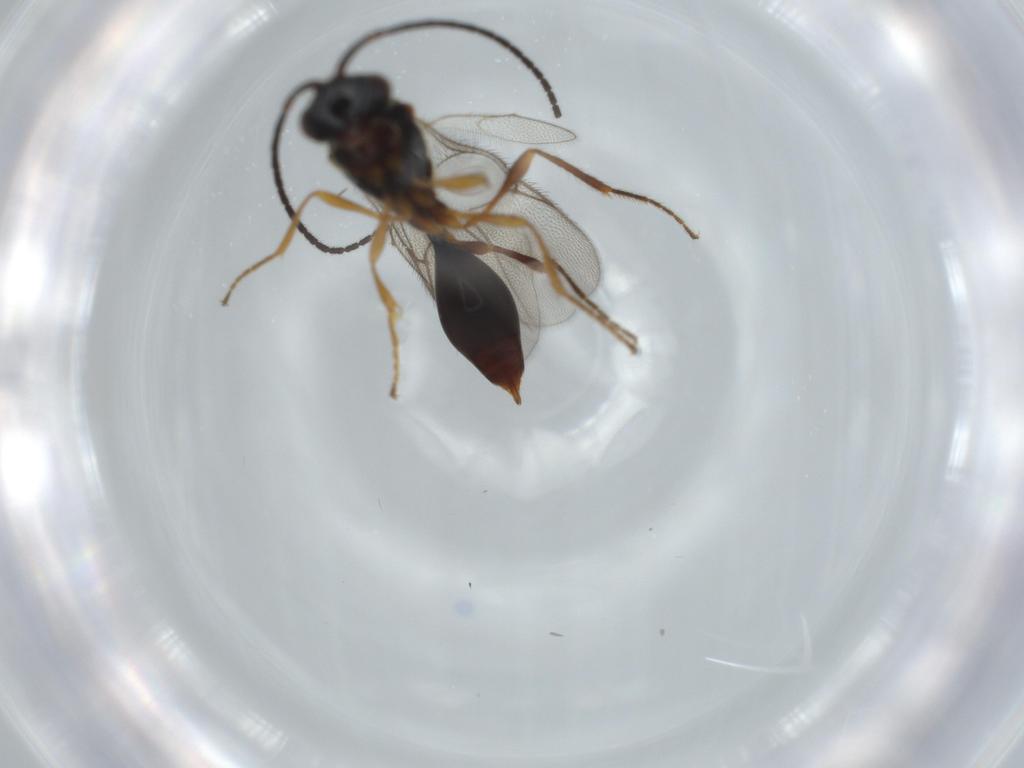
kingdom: Animalia
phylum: Arthropoda
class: Insecta
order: Hymenoptera
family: Diapriidae
